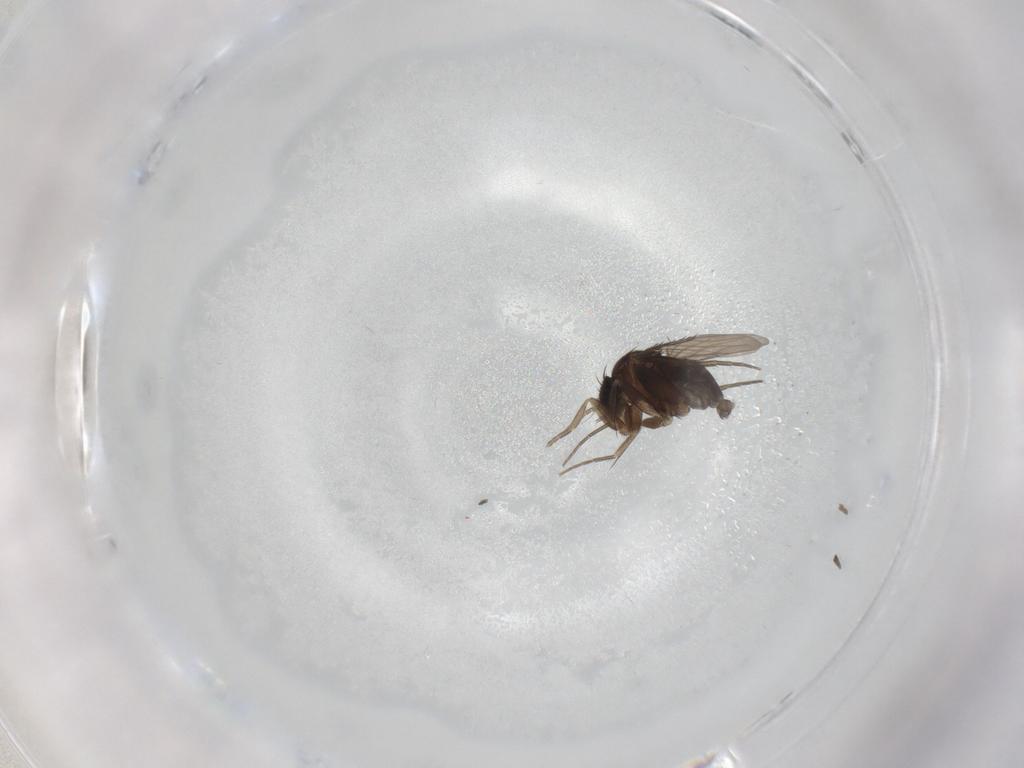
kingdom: Animalia
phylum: Arthropoda
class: Insecta
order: Diptera
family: Phoridae
